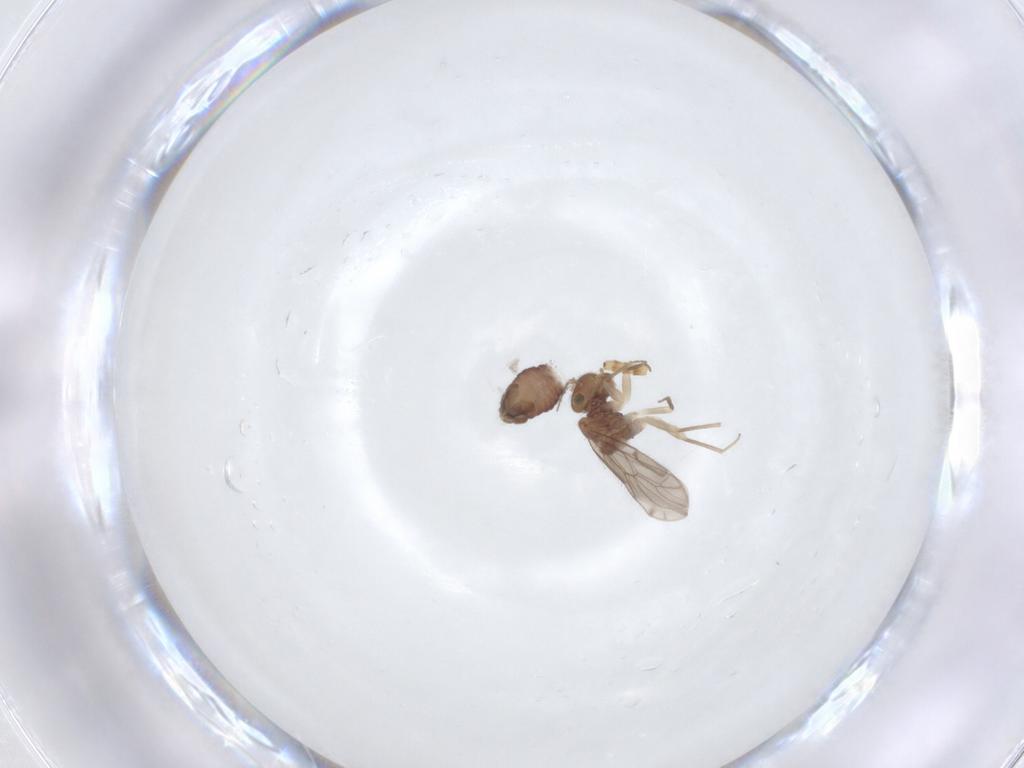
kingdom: Animalia
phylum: Arthropoda
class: Insecta
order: Psocodea
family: Ectopsocidae
